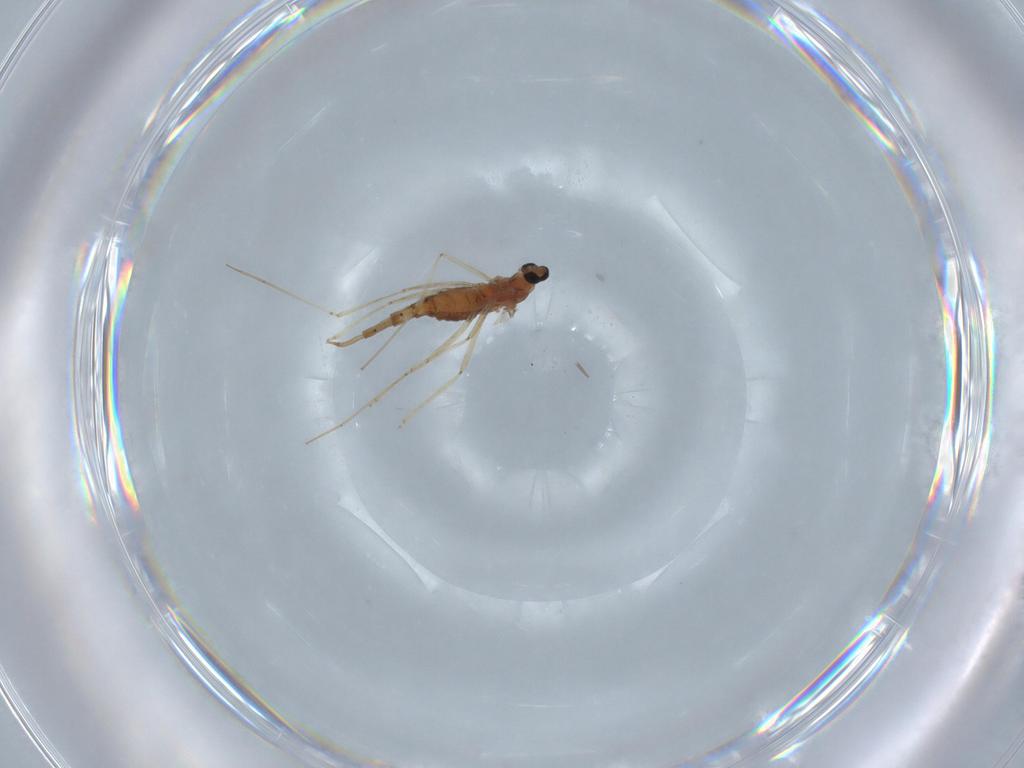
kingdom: Animalia
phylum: Arthropoda
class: Insecta
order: Diptera
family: Cecidomyiidae
